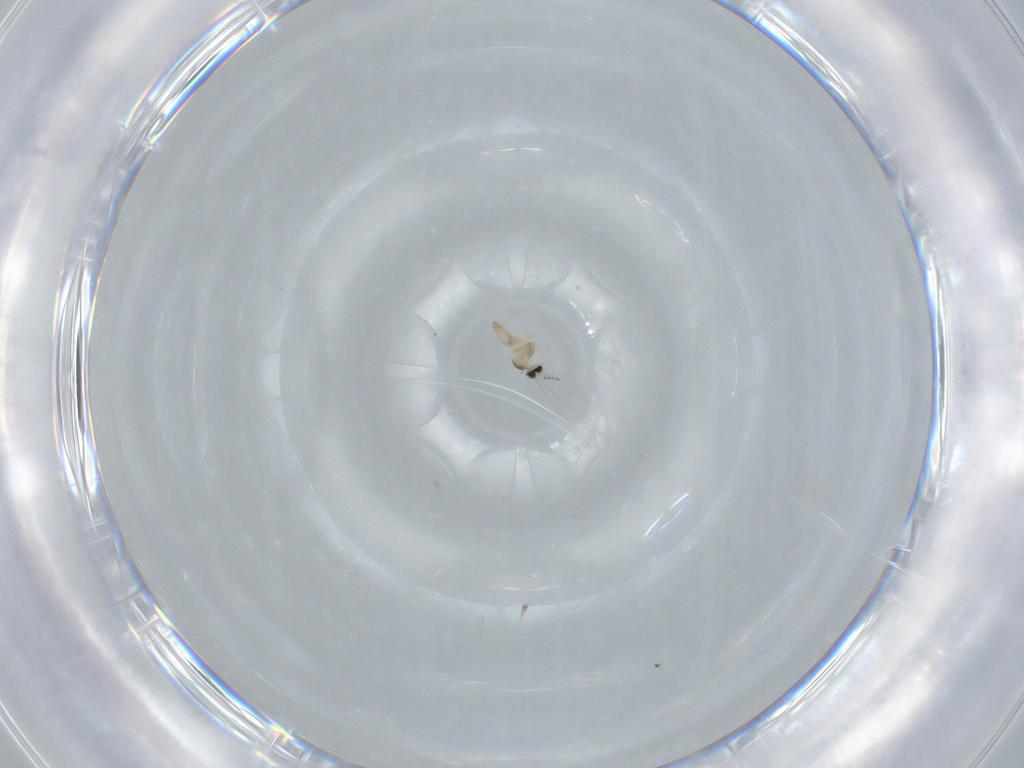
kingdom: Animalia
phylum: Arthropoda
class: Insecta
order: Diptera
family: Cecidomyiidae
